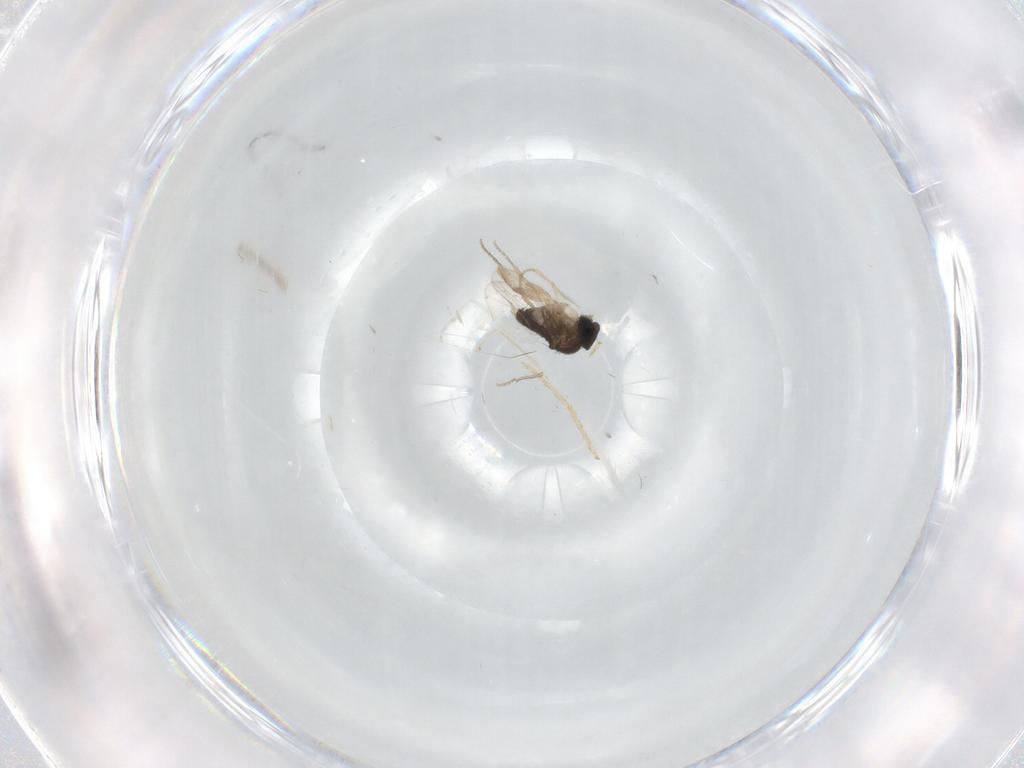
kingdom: Animalia
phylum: Arthropoda
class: Insecta
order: Diptera
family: Phoridae
